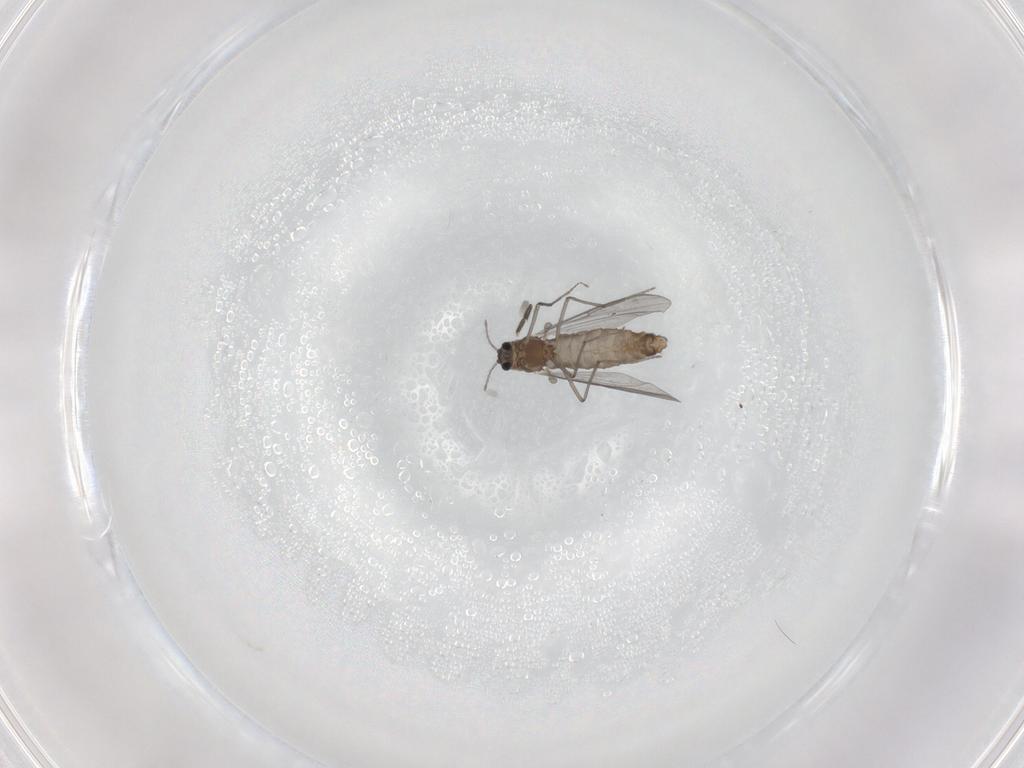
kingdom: Animalia
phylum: Arthropoda
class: Insecta
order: Diptera
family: Chironomidae
